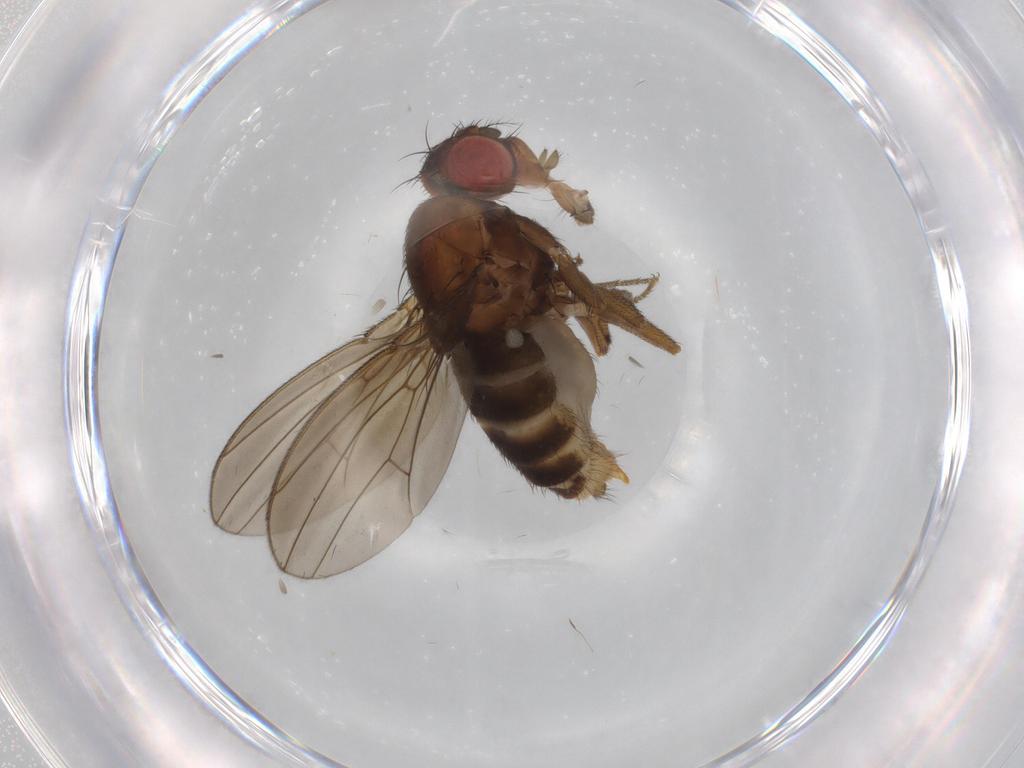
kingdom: Animalia
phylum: Arthropoda
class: Insecta
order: Diptera
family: Drosophilidae
